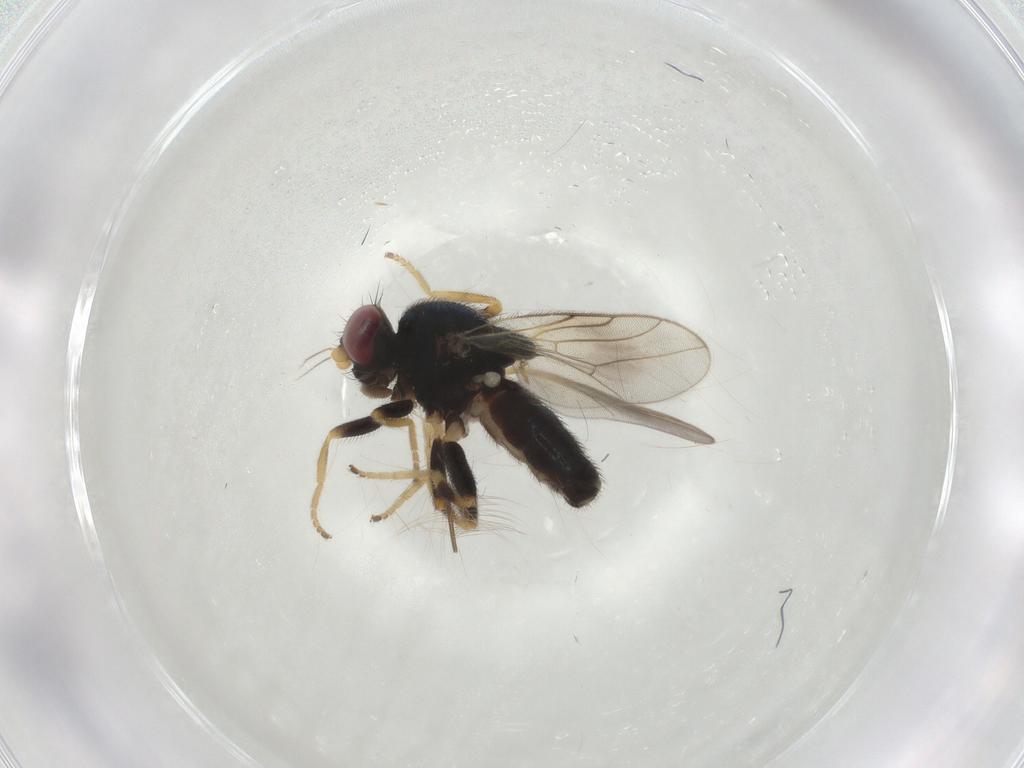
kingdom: Animalia
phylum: Arthropoda
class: Insecta
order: Diptera
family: Chloropidae
